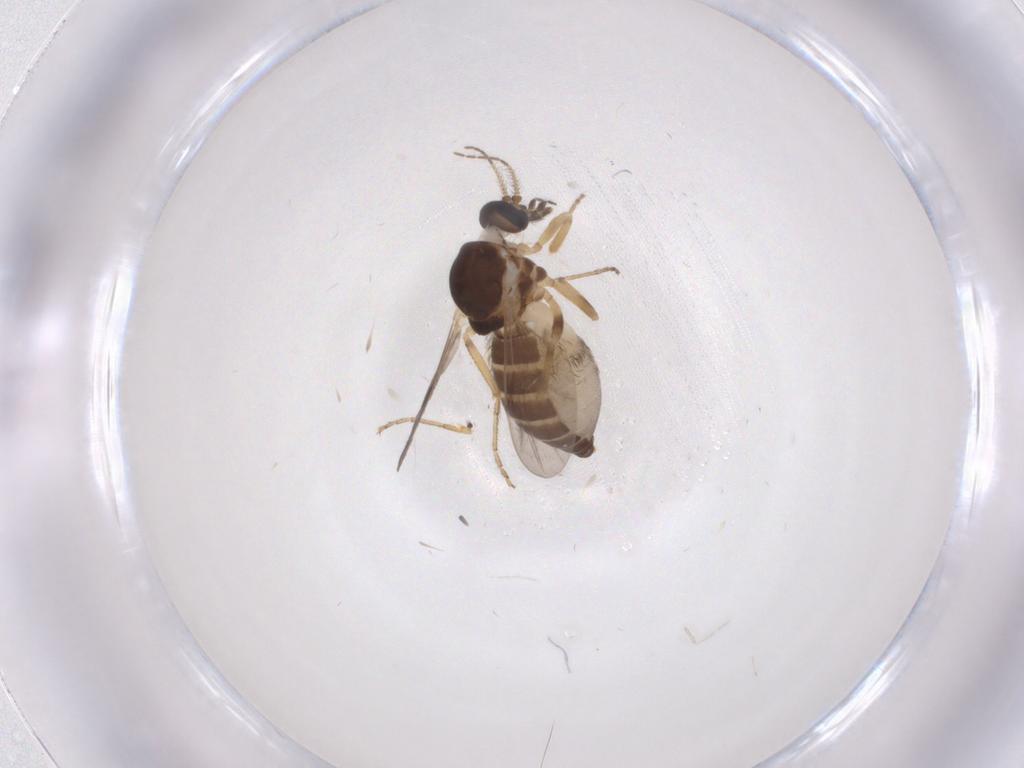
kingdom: Animalia
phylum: Arthropoda
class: Insecta
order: Diptera
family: Ceratopogonidae
